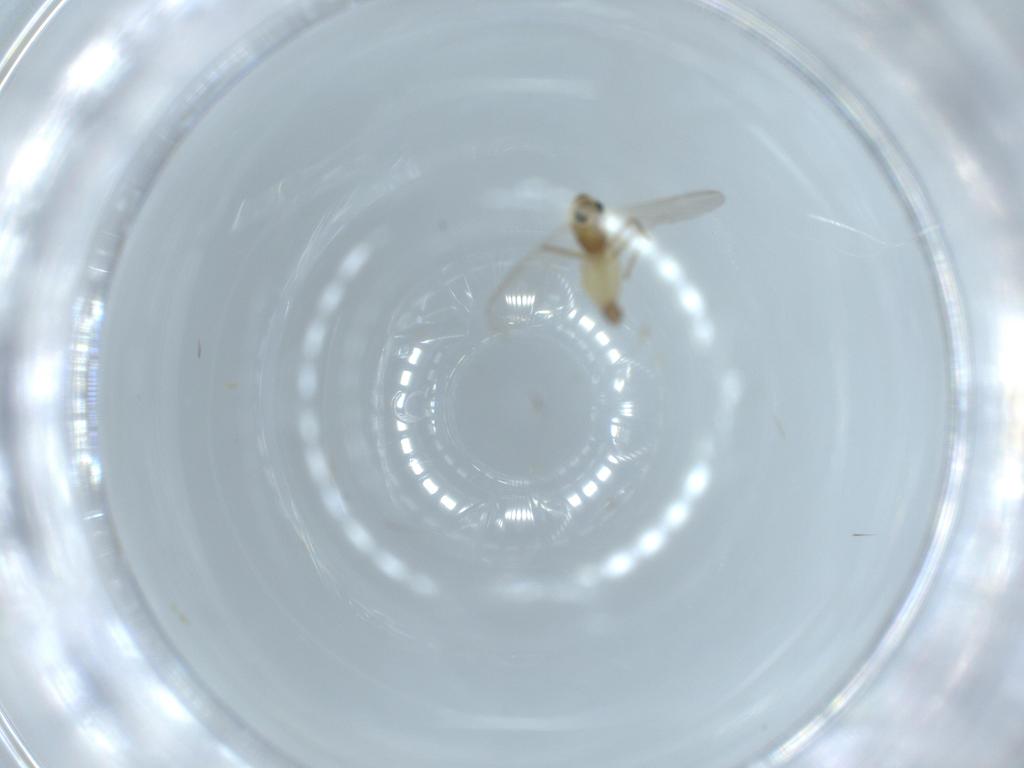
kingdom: Animalia
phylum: Arthropoda
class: Insecta
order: Diptera
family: Chironomidae
